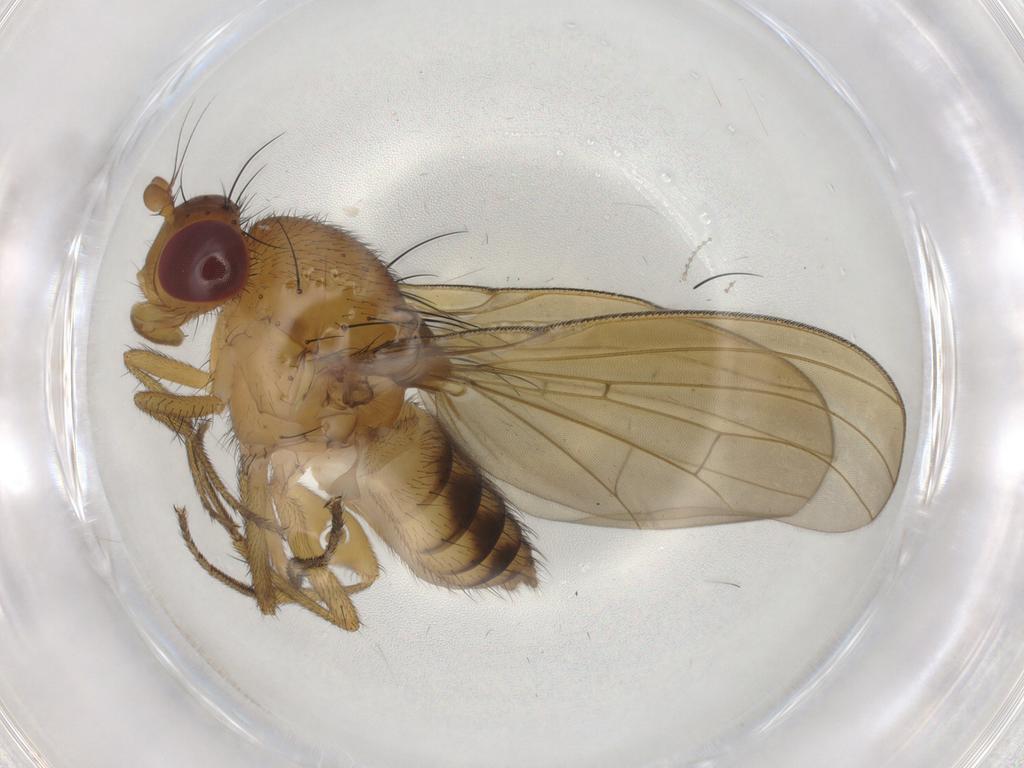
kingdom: Animalia
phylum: Arthropoda
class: Insecta
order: Diptera
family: Cecidomyiidae
